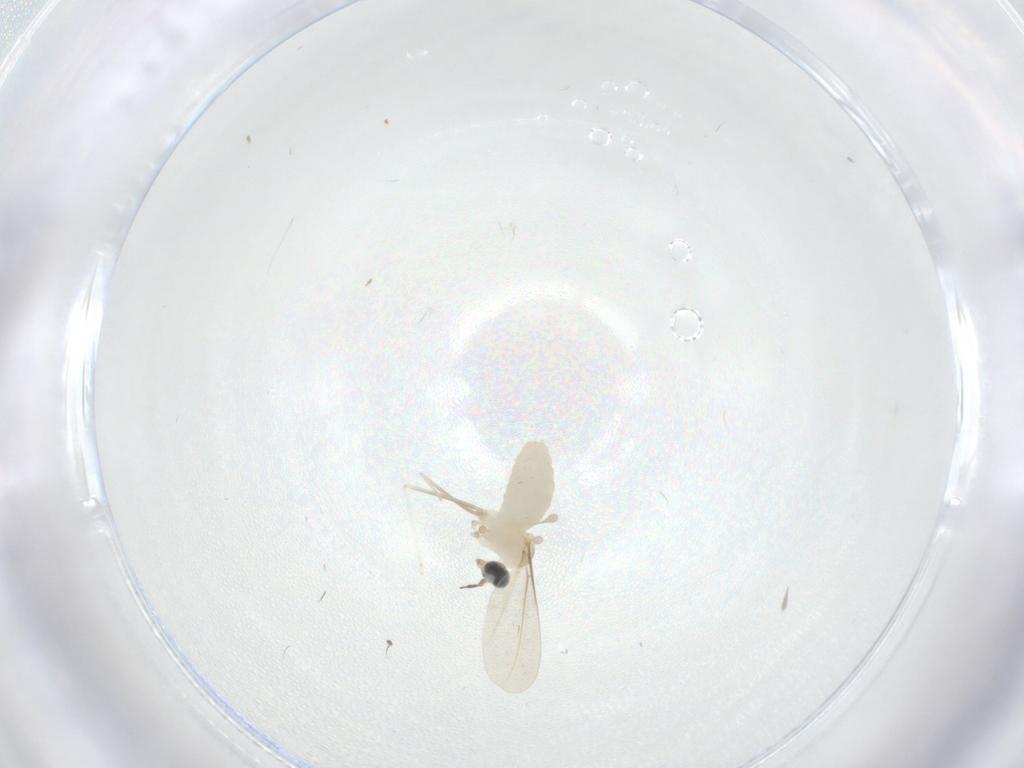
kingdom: Animalia
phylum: Arthropoda
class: Insecta
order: Diptera
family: Cecidomyiidae
